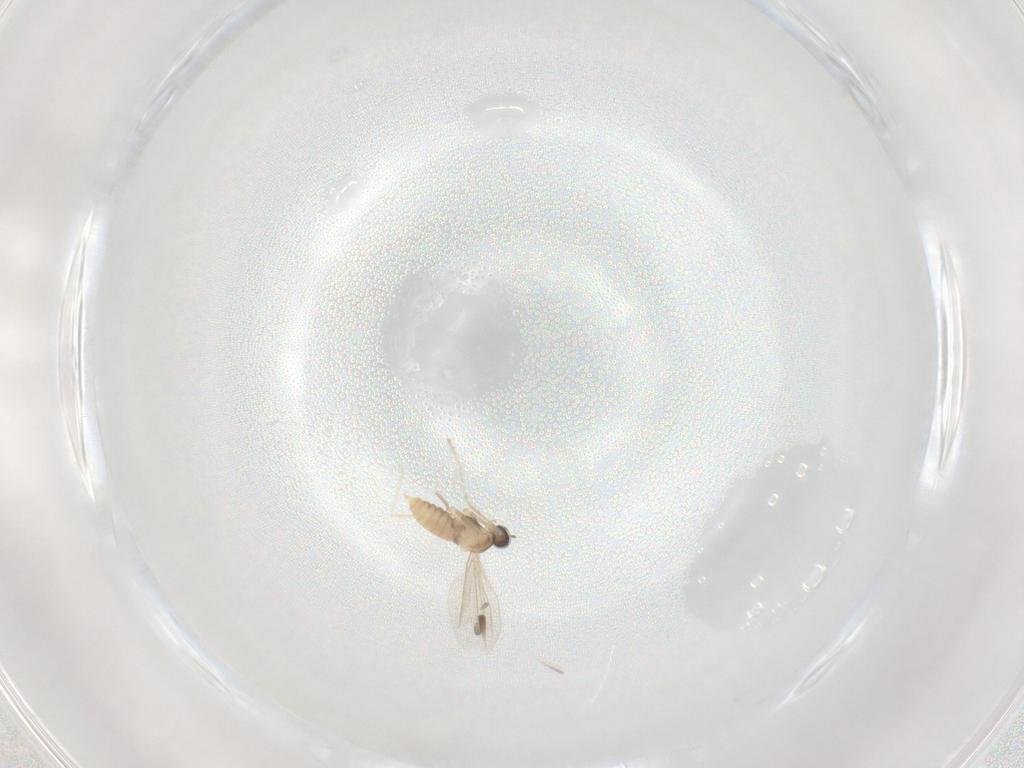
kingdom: Animalia
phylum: Arthropoda
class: Insecta
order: Diptera
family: Cecidomyiidae
